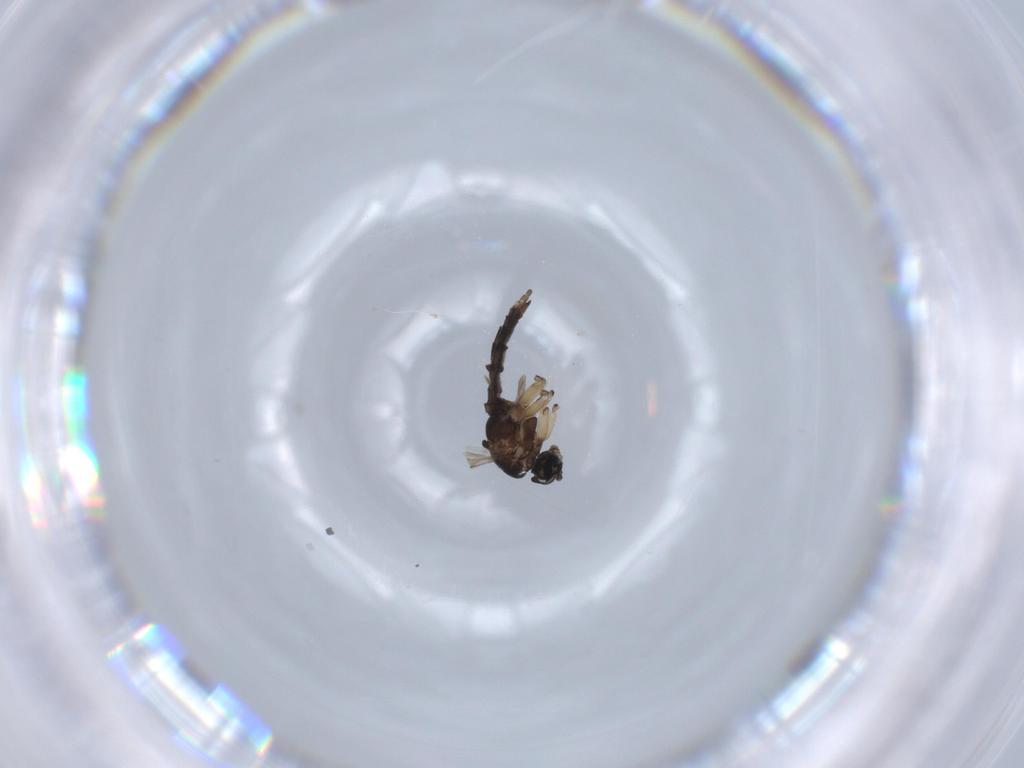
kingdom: Animalia
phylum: Arthropoda
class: Insecta
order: Diptera
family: Sciaridae
